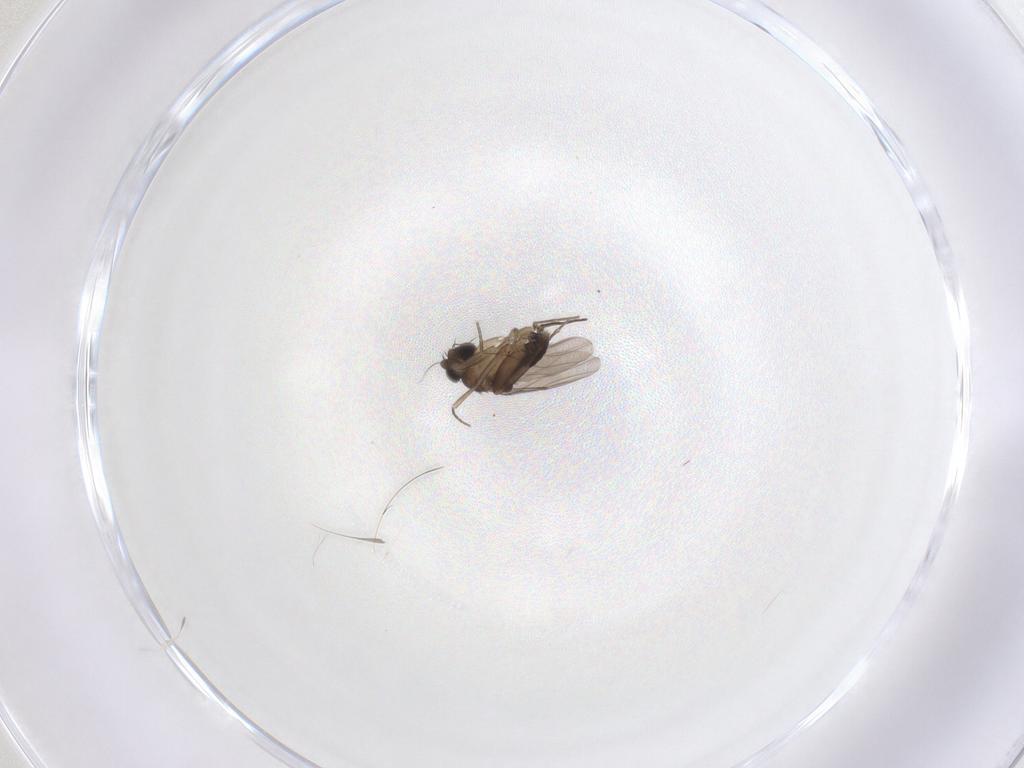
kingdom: Animalia
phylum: Arthropoda
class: Insecta
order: Diptera
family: Phoridae
